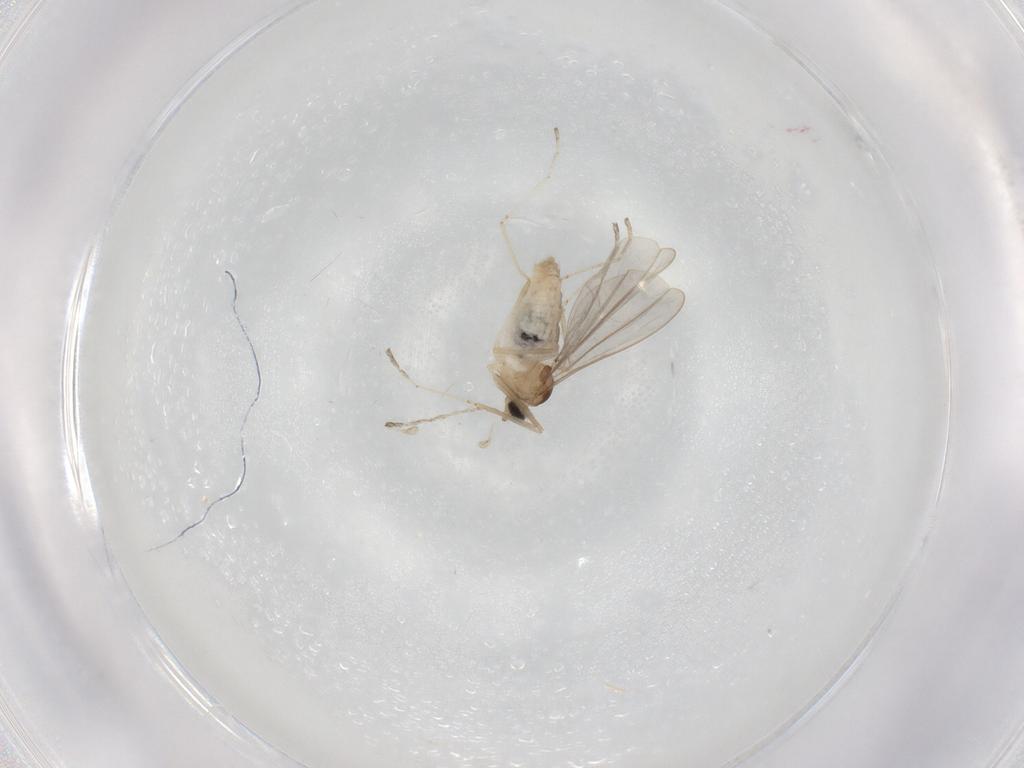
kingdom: Animalia
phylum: Arthropoda
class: Insecta
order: Diptera
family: Cecidomyiidae
